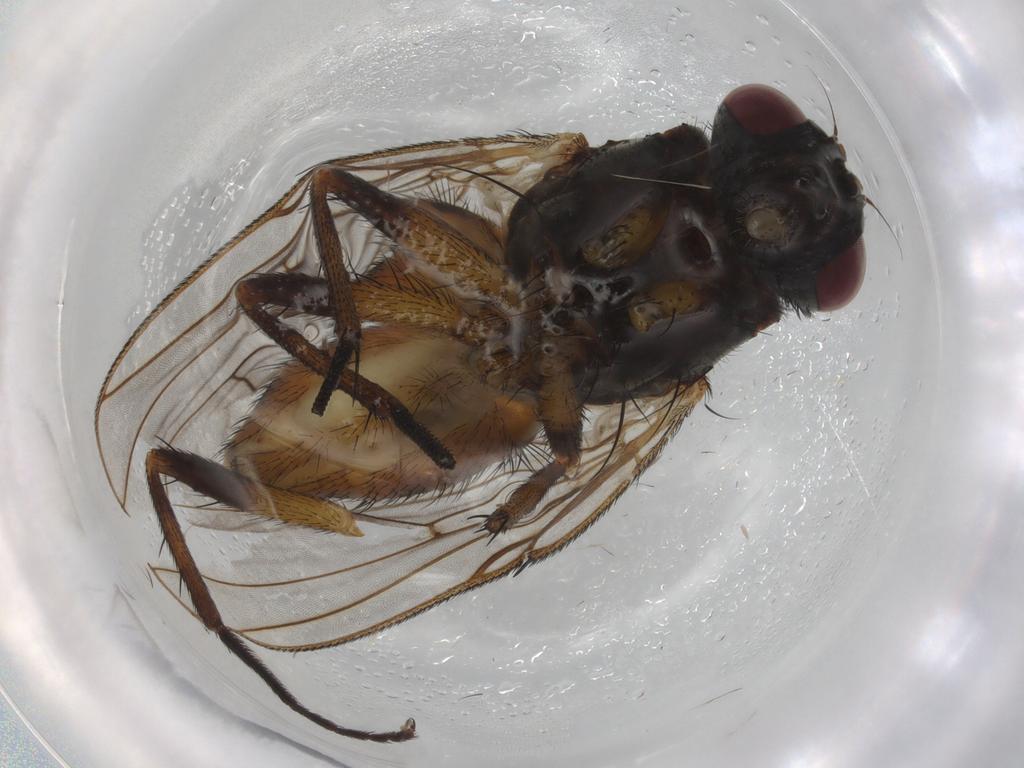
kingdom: Animalia
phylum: Arthropoda
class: Insecta
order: Diptera
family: Ceratopogonidae
